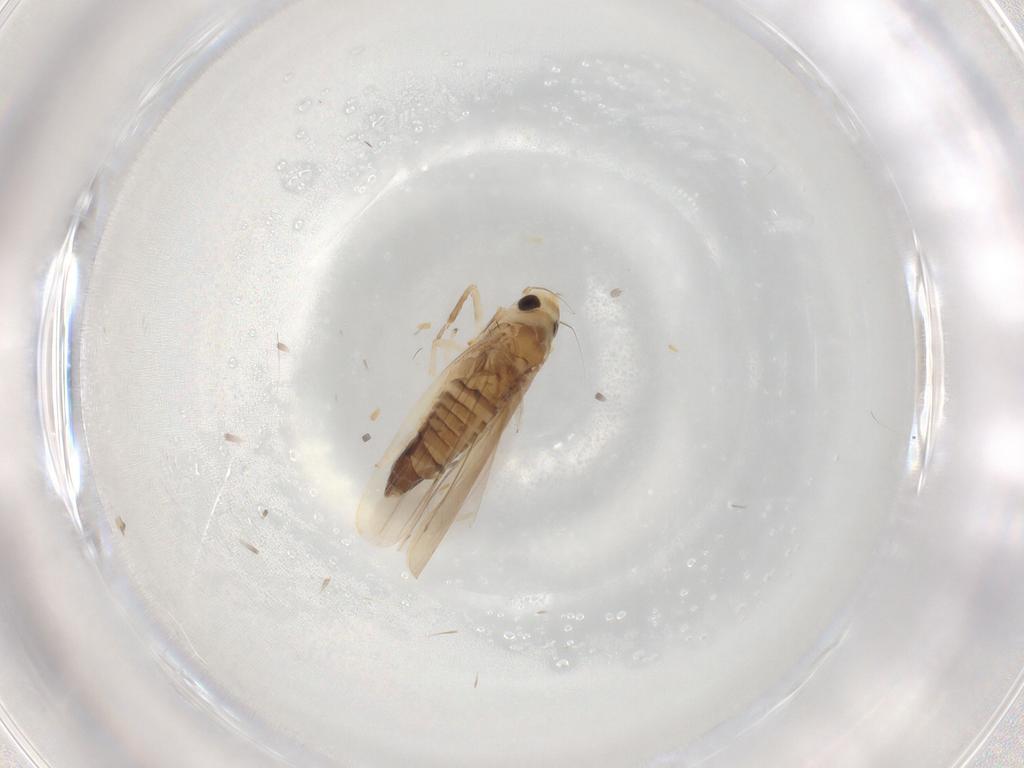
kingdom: Animalia
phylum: Arthropoda
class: Insecta
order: Hemiptera
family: Cicadellidae
